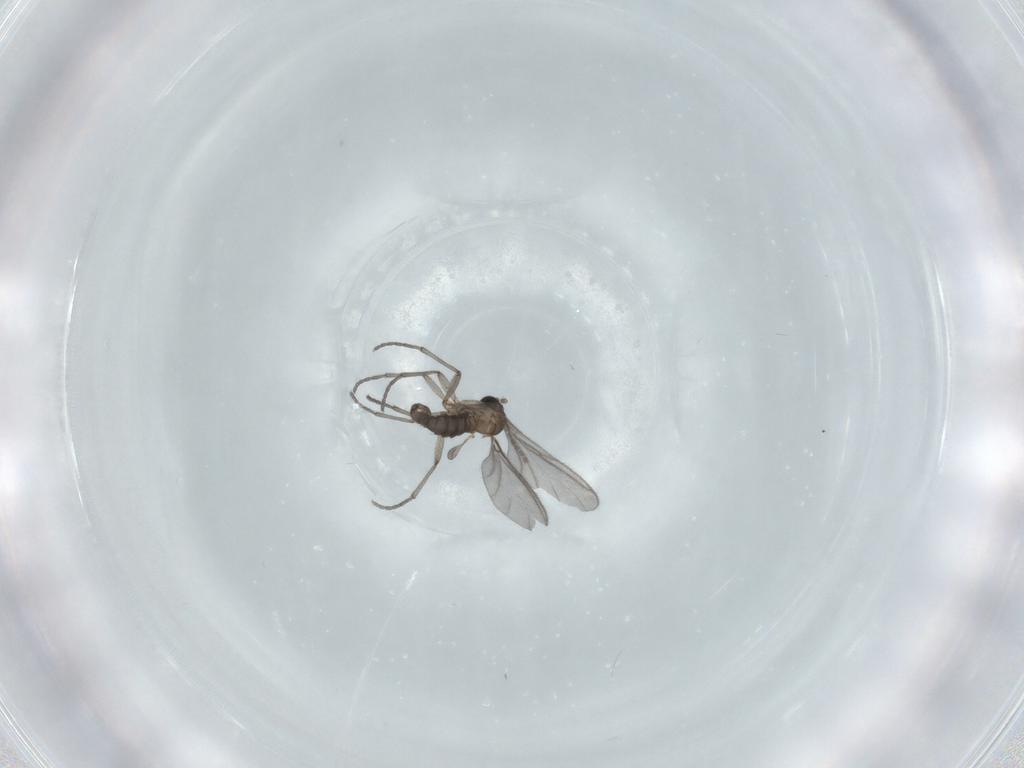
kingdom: Animalia
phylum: Arthropoda
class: Insecta
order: Diptera
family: Sciaridae
